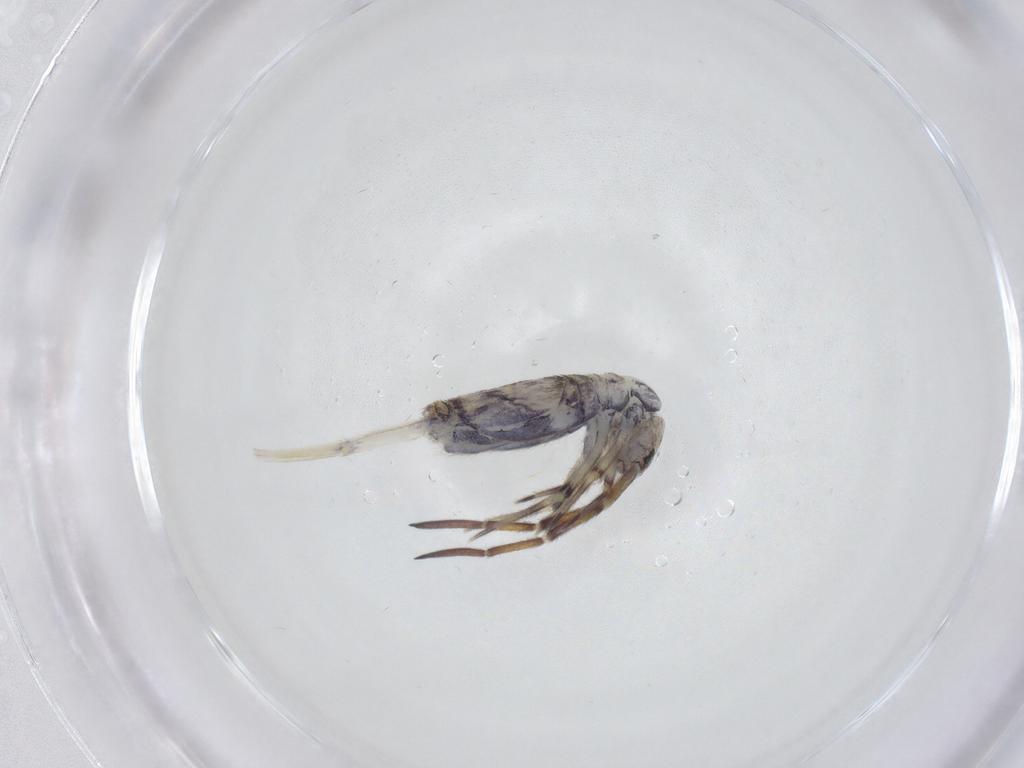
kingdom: Animalia
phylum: Arthropoda
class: Collembola
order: Entomobryomorpha
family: Entomobryidae
